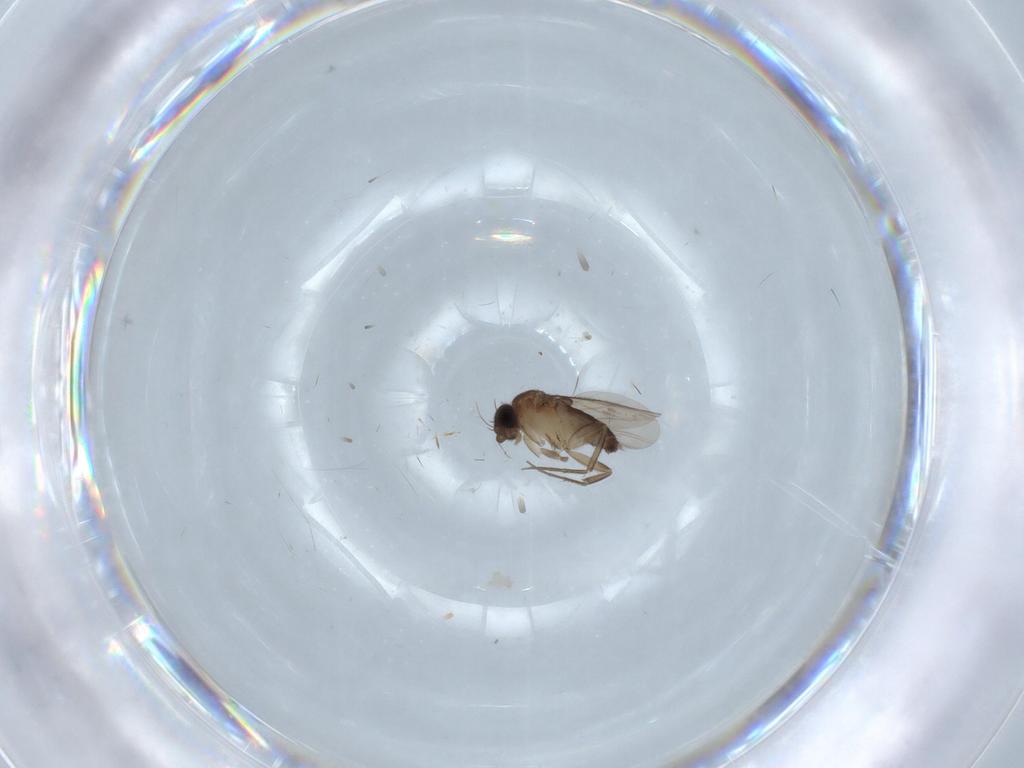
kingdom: Animalia
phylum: Arthropoda
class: Insecta
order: Diptera
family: Phoridae
